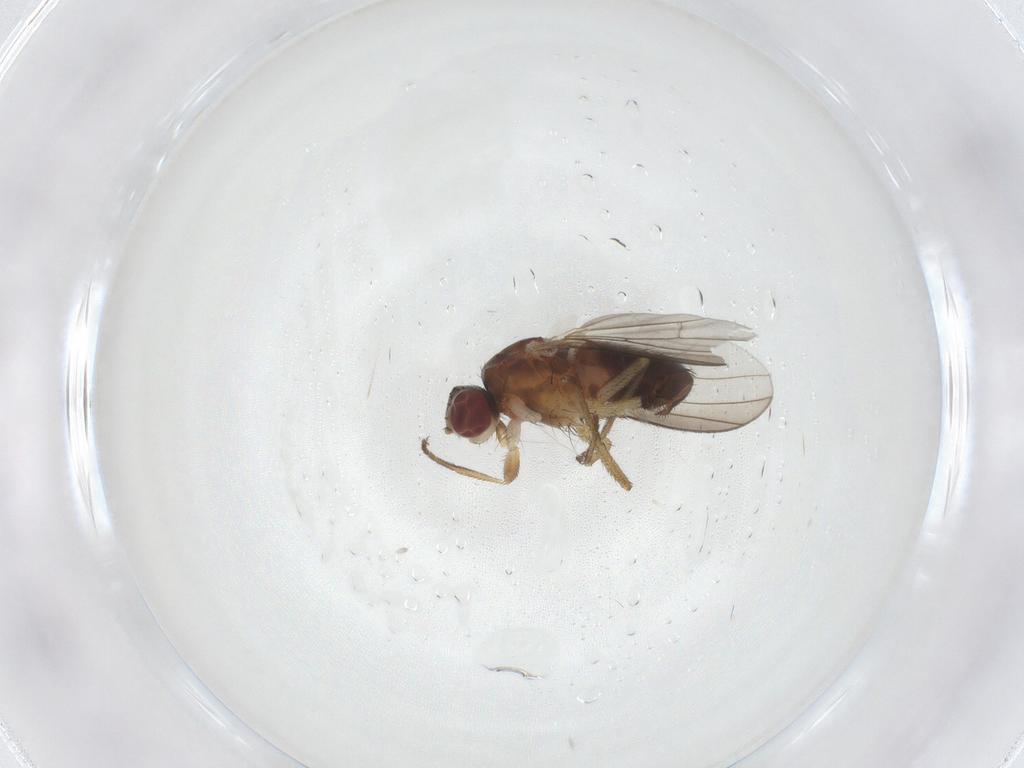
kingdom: Animalia
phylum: Arthropoda
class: Insecta
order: Diptera
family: Heleomyzidae
